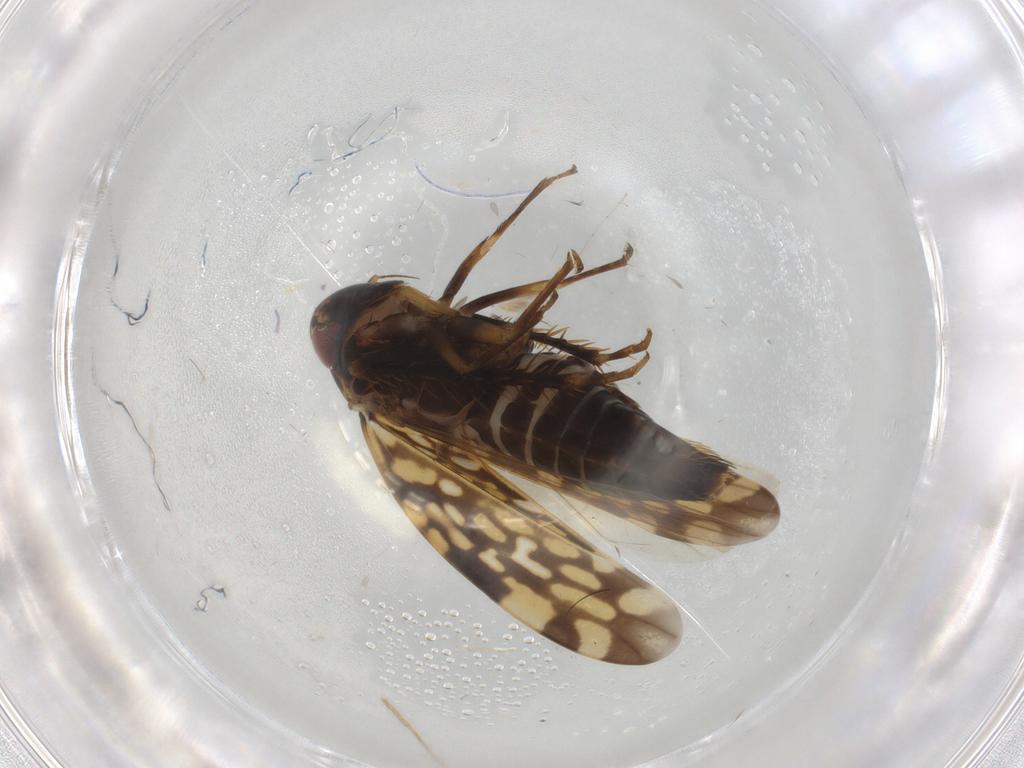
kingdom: Animalia
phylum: Arthropoda
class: Insecta
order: Hemiptera
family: Cicadellidae
